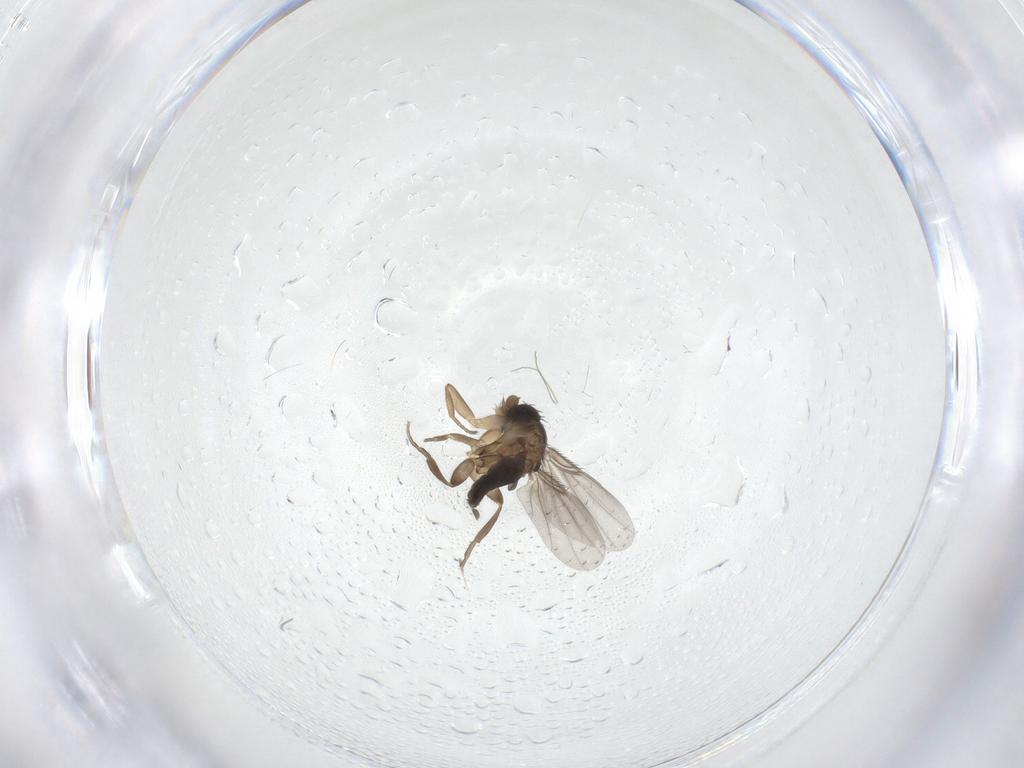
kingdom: Animalia
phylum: Arthropoda
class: Insecta
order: Diptera
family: Phoridae
